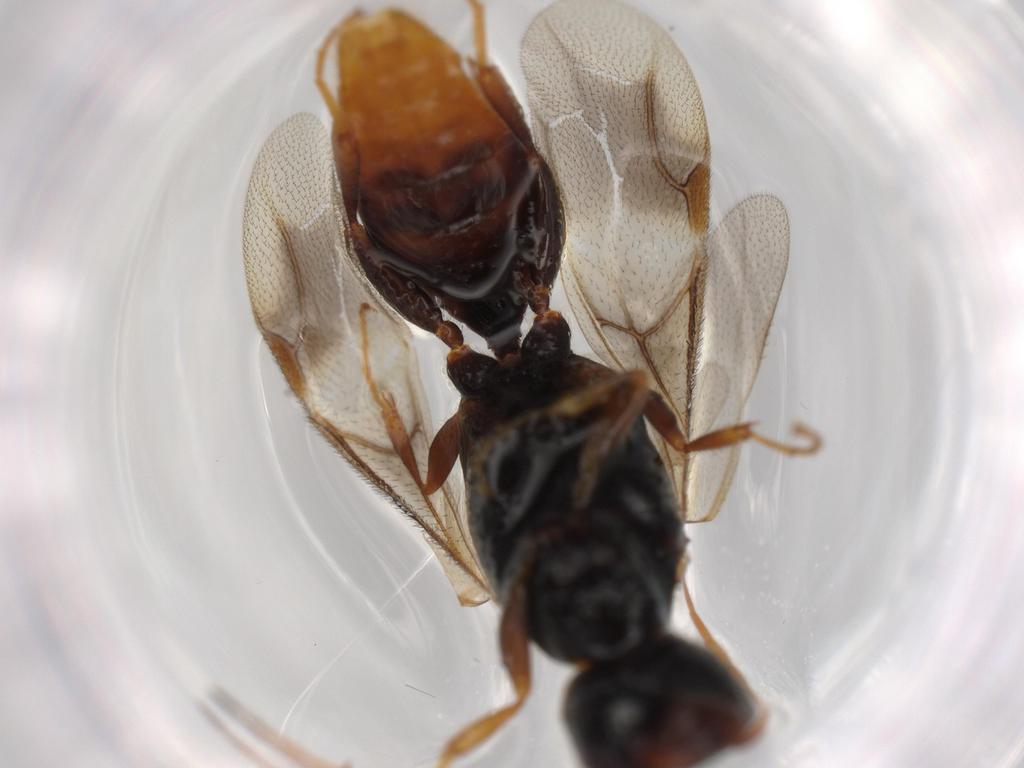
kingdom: Animalia
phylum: Arthropoda
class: Insecta
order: Hymenoptera
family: Bethylidae
